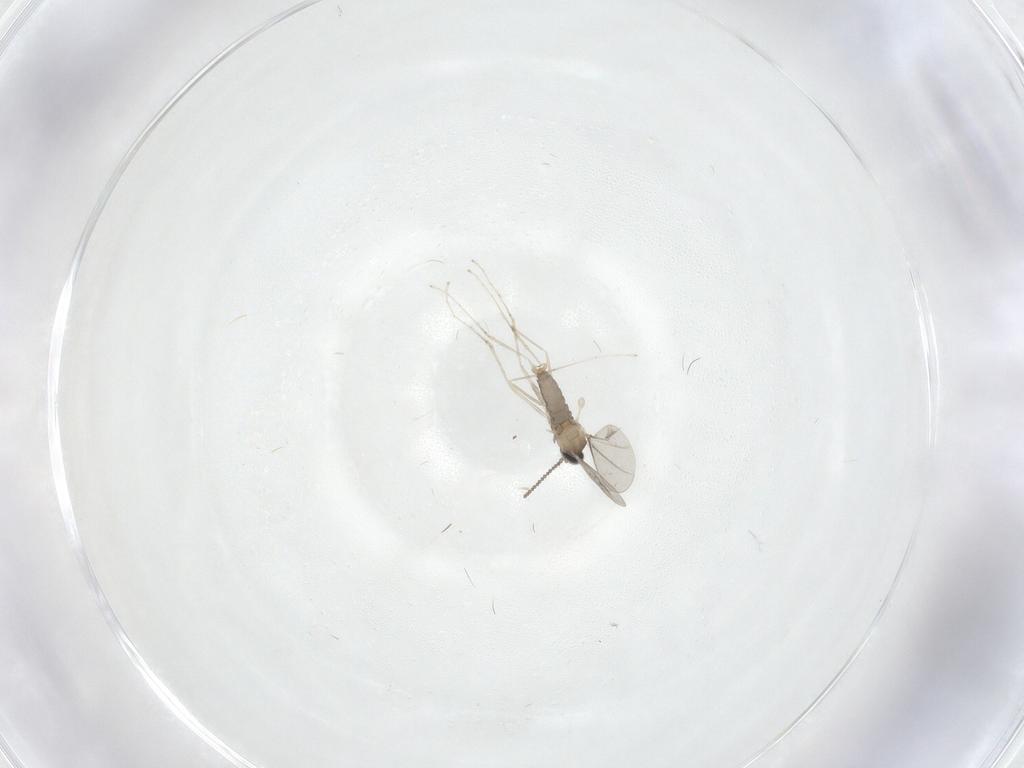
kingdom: Animalia
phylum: Arthropoda
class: Insecta
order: Diptera
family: Cecidomyiidae
